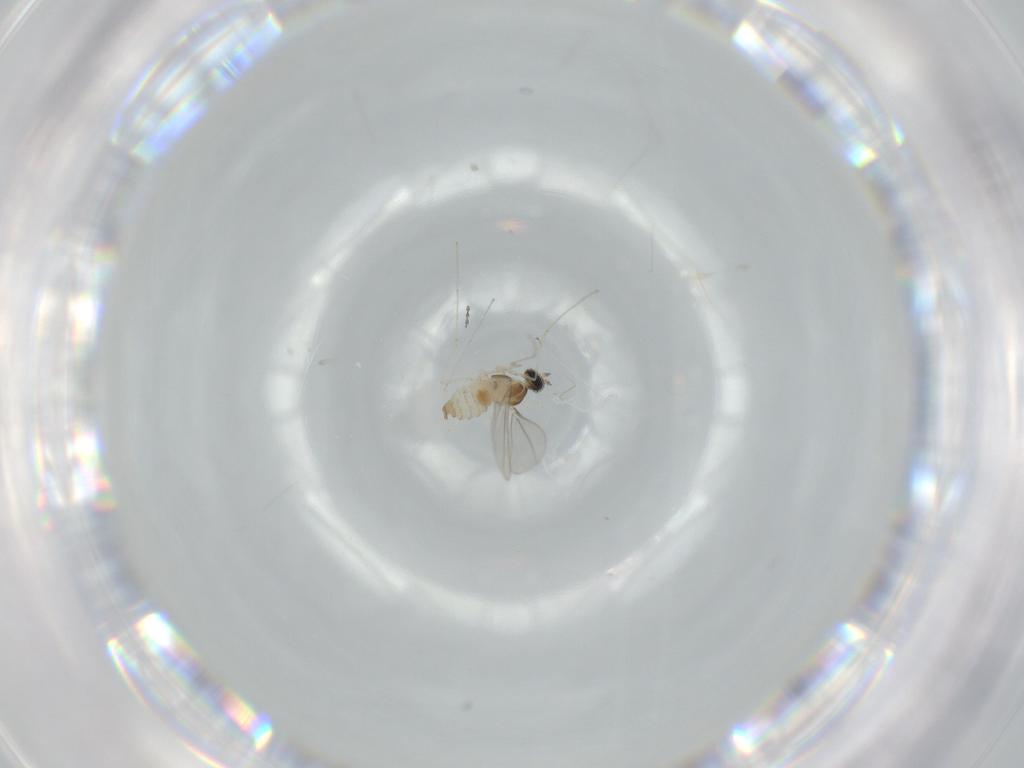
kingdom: Animalia
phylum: Arthropoda
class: Insecta
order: Diptera
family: Cecidomyiidae
